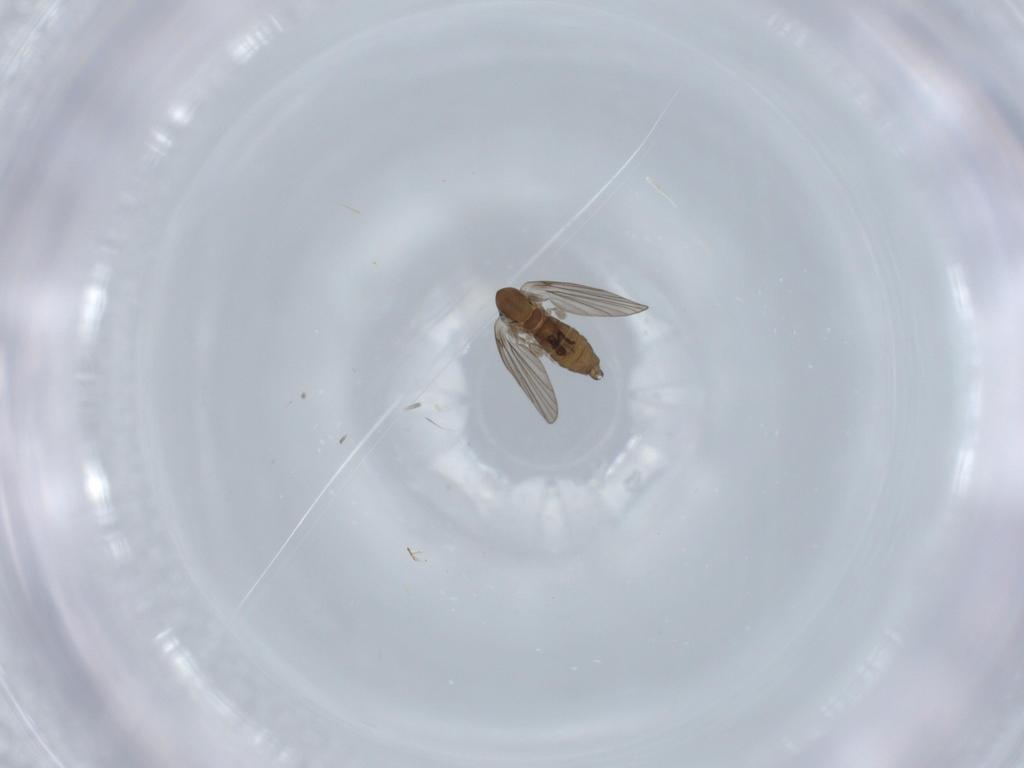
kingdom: Animalia
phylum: Arthropoda
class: Insecta
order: Diptera
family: Psychodidae
